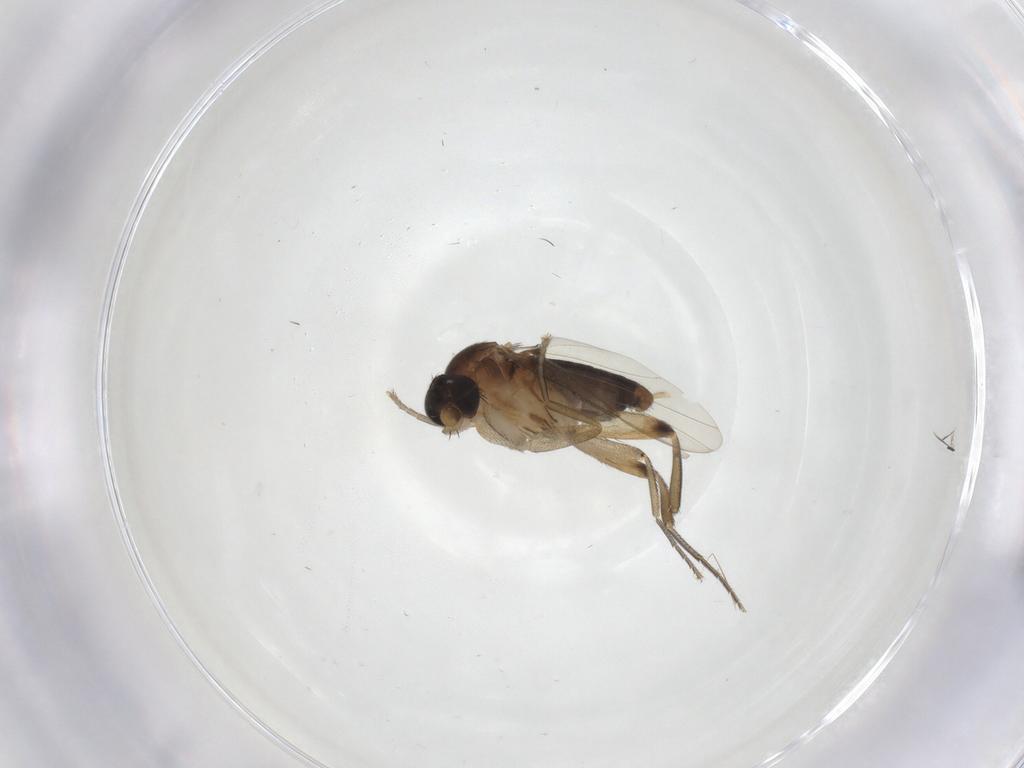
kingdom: Animalia
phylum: Arthropoda
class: Insecta
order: Diptera
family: Phoridae
